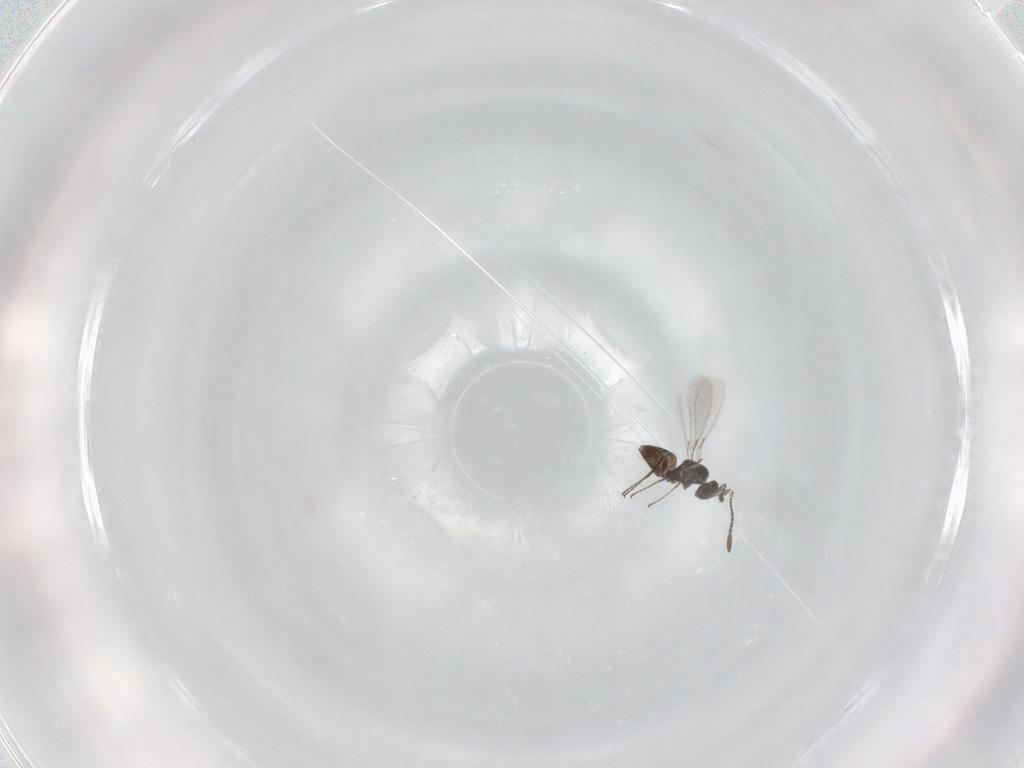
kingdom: Animalia
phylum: Arthropoda
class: Insecta
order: Hymenoptera
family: Mymaridae
